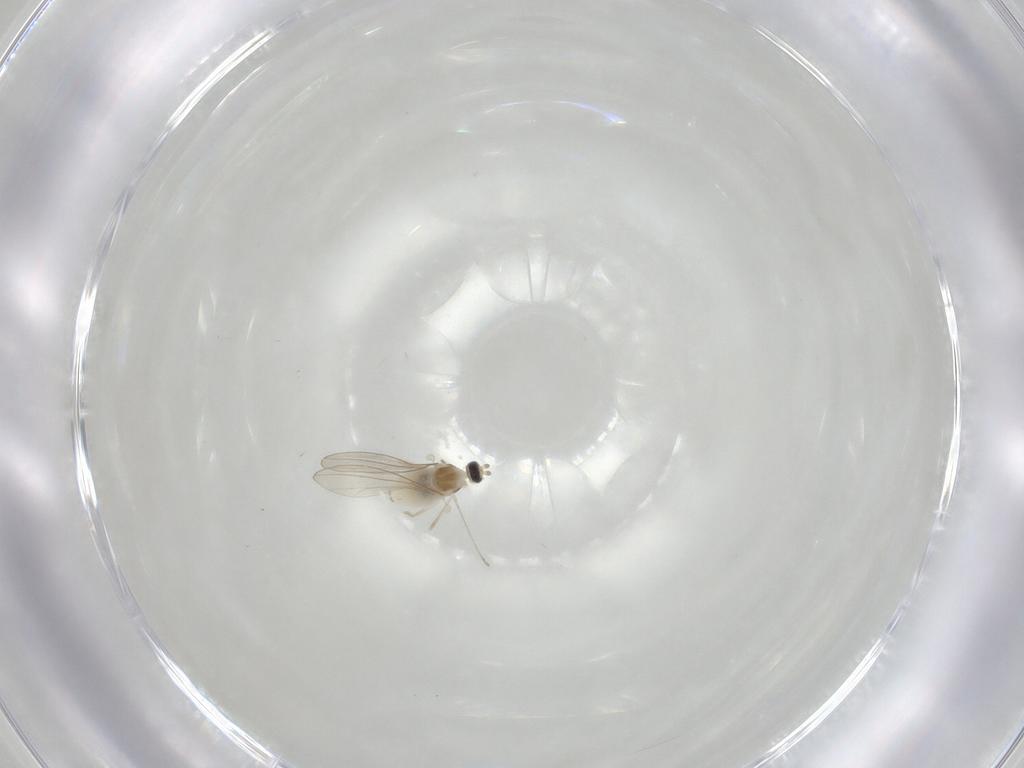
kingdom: Animalia
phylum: Arthropoda
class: Insecta
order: Diptera
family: Cecidomyiidae
